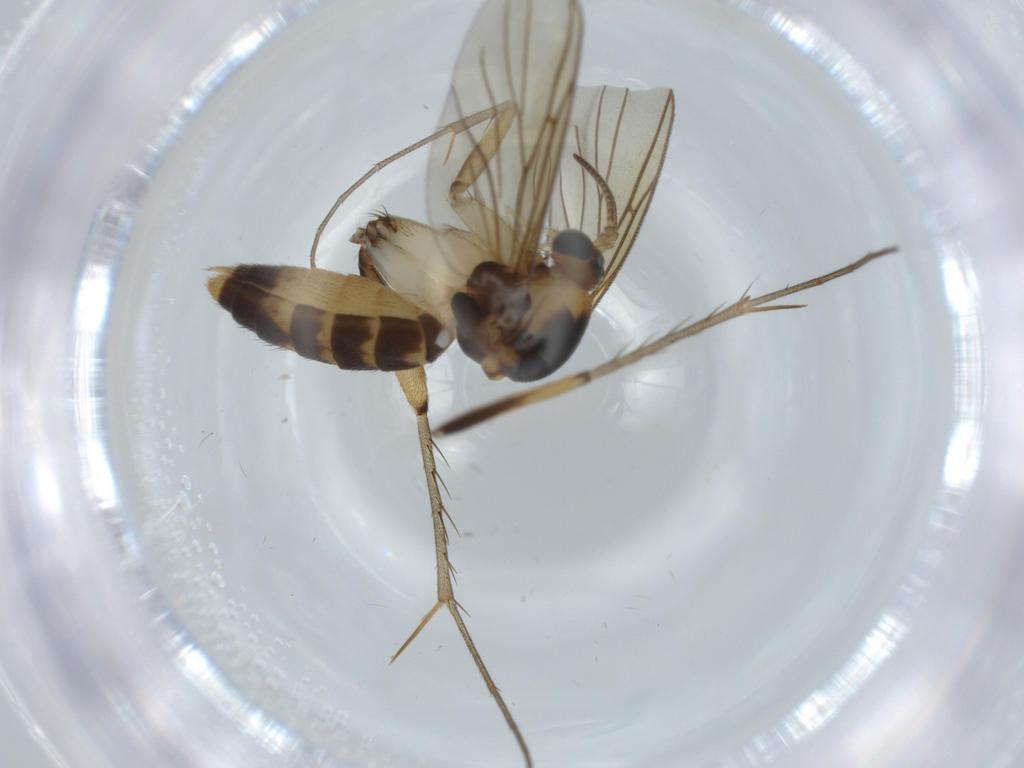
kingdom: Animalia
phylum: Arthropoda
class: Insecta
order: Diptera
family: Mycetophilidae
